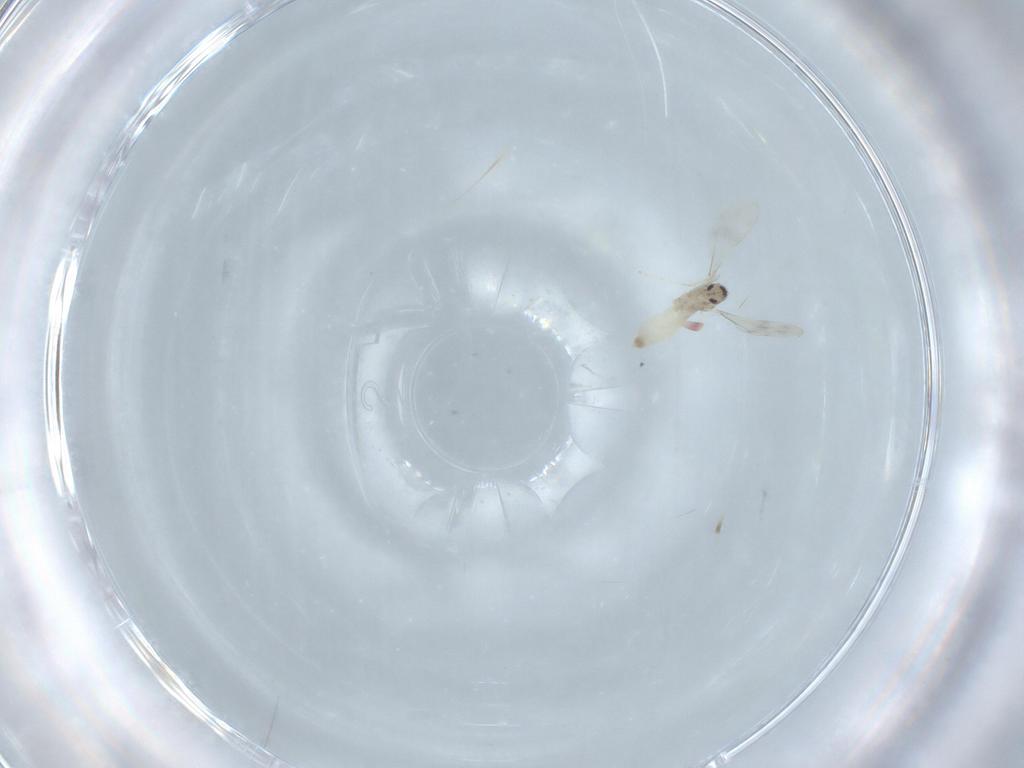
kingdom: Animalia
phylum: Arthropoda
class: Insecta
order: Diptera
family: Cecidomyiidae
